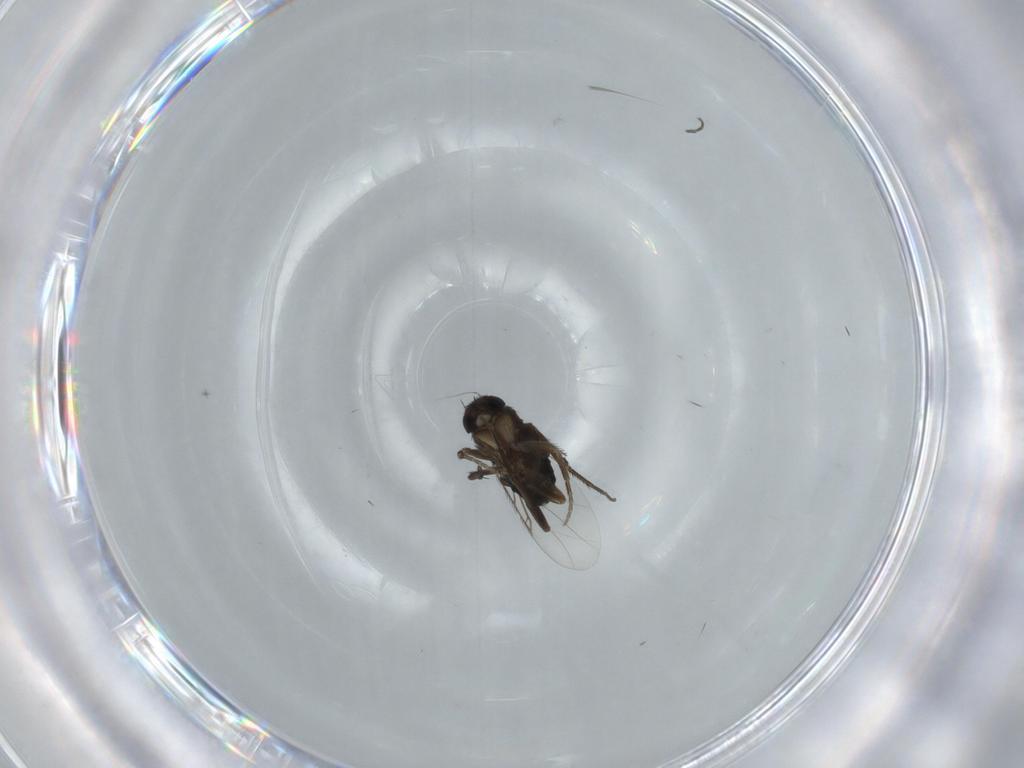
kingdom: Animalia
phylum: Arthropoda
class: Insecta
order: Diptera
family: Phoridae
